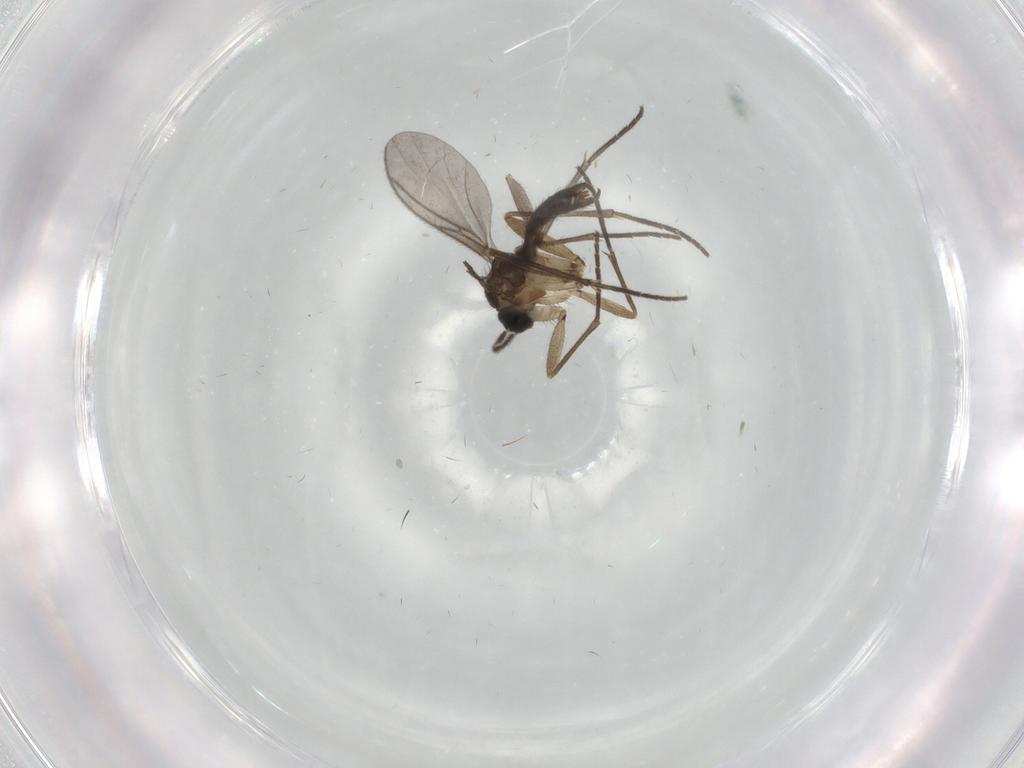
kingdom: Animalia
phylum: Arthropoda
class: Insecta
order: Diptera
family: Sciaridae
